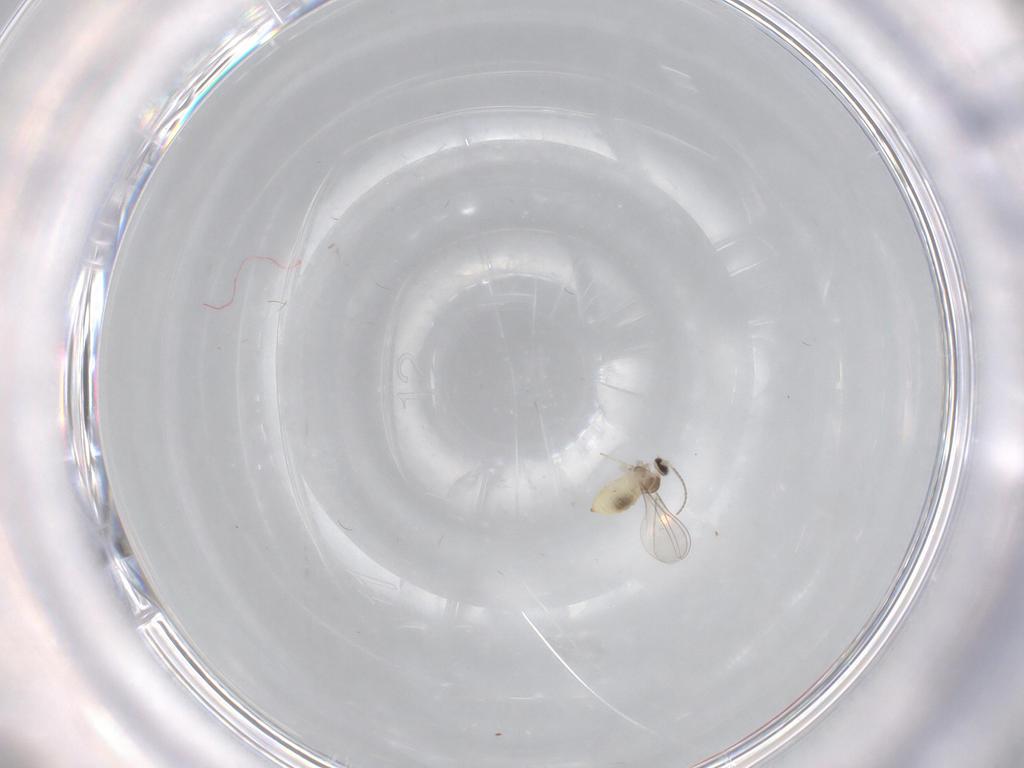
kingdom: Animalia
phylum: Arthropoda
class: Insecta
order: Diptera
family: Cecidomyiidae
